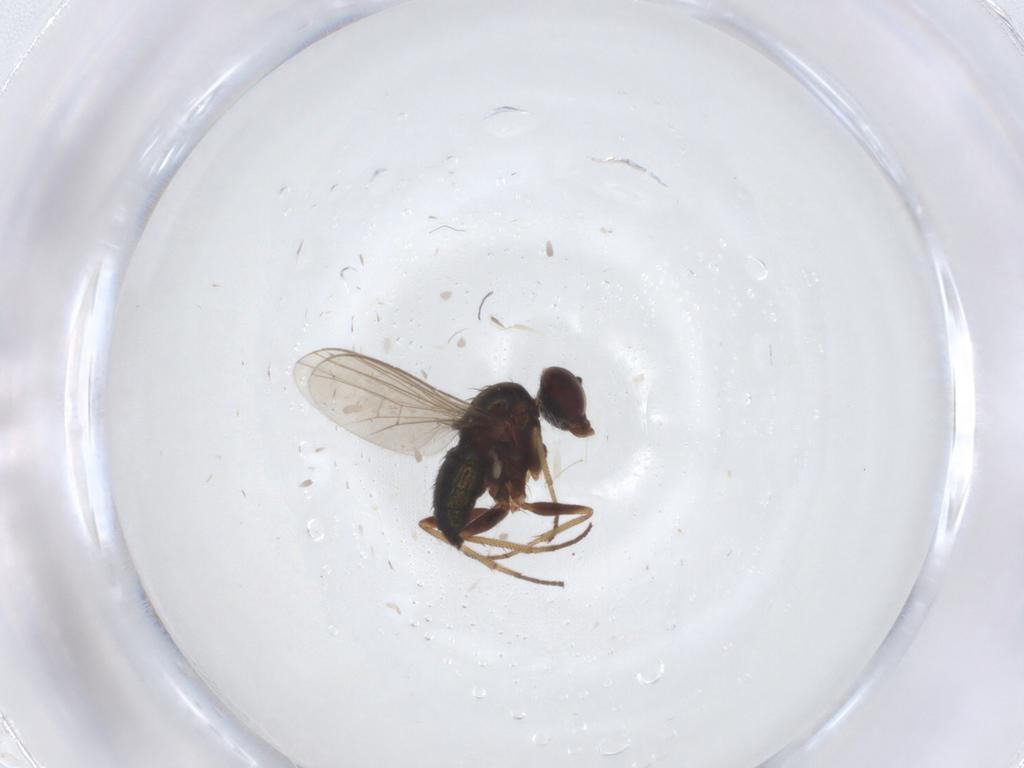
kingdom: Animalia
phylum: Arthropoda
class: Insecta
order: Diptera
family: Dolichopodidae
